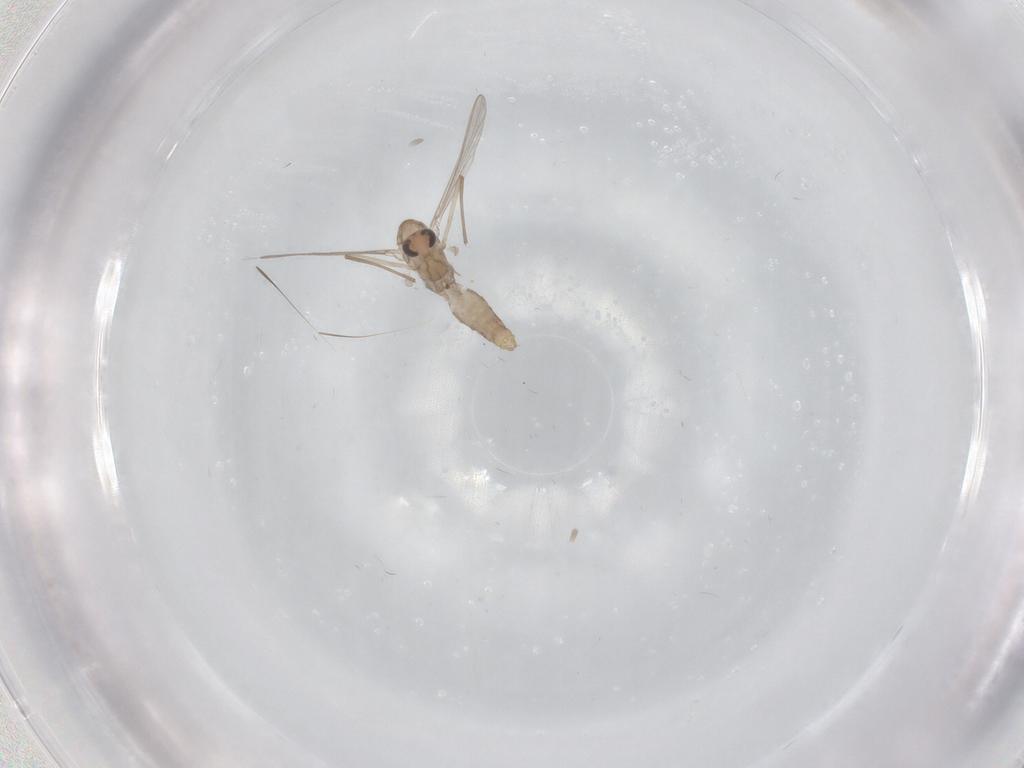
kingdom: Animalia
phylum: Arthropoda
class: Insecta
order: Diptera
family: Chironomidae
